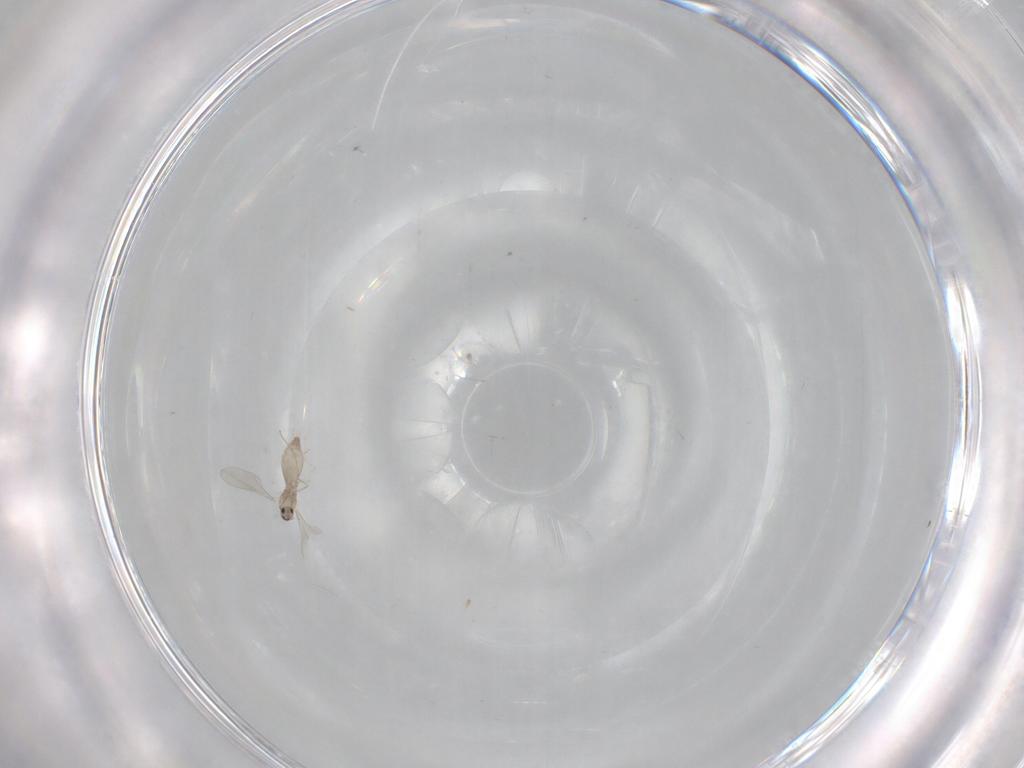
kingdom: Animalia
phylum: Arthropoda
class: Insecta
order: Diptera
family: Cecidomyiidae
